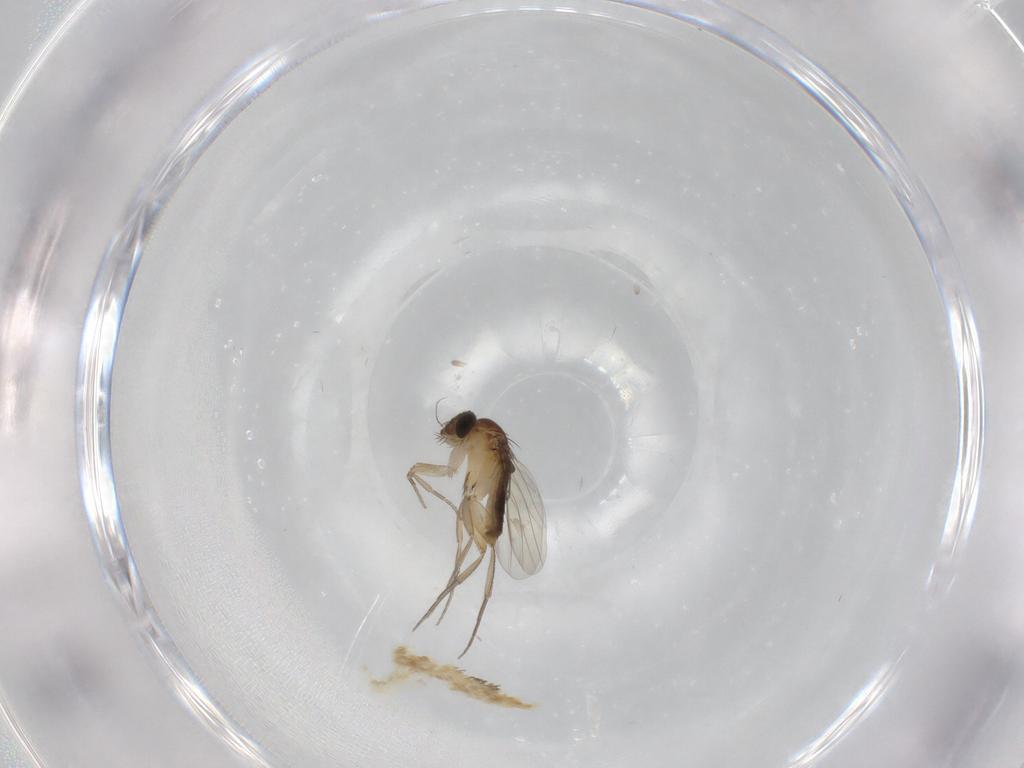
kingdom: Animalia
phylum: Arthropoda
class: Insecta
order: Diptera
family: Phoridae
